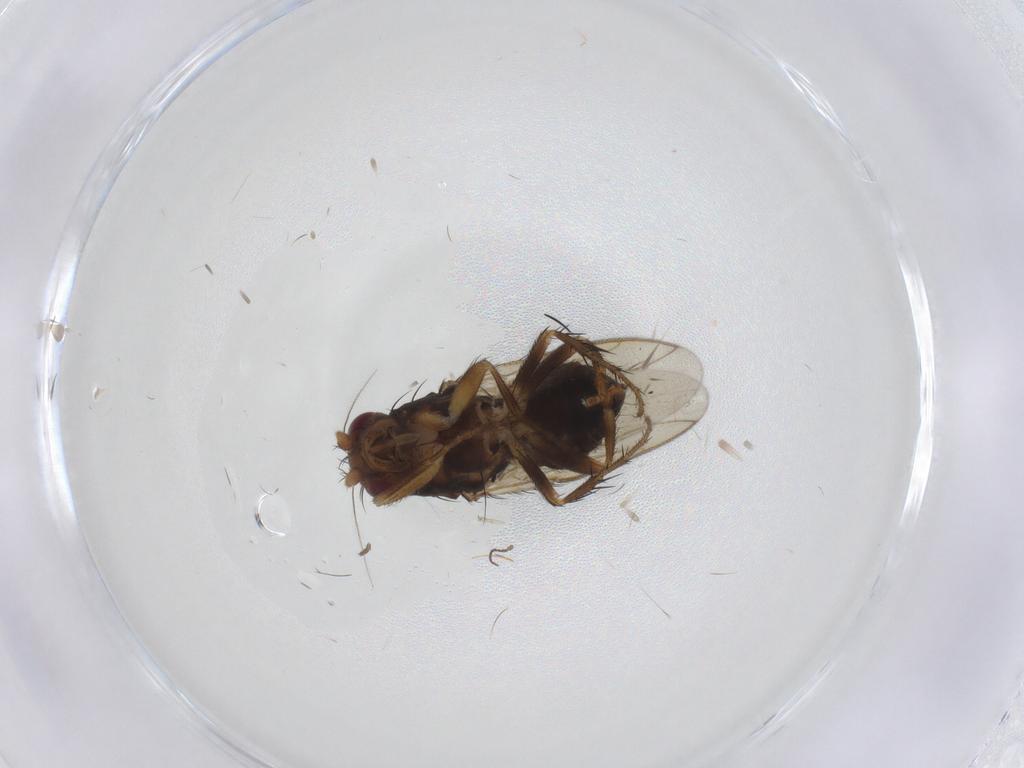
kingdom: Animalia
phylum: Arthropoda
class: Insecta
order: Diptera
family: Sphaeroceridae
